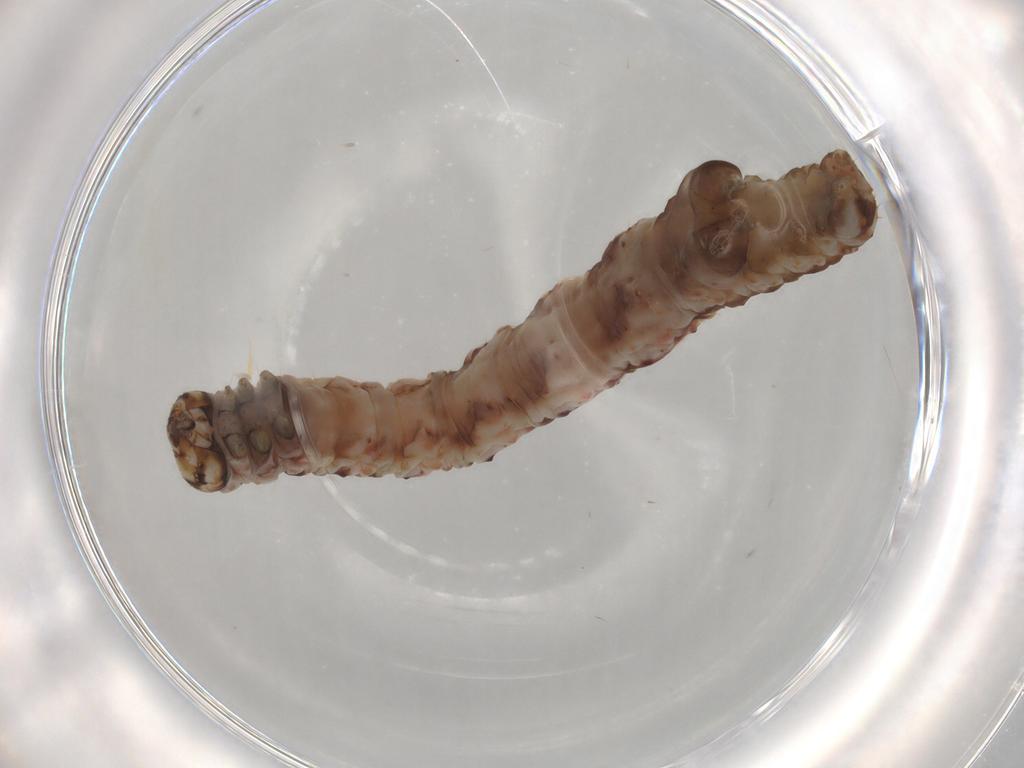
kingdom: Animalia
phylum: Arthropoda
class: Insecta
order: Lepidoptera
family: Geometridae
